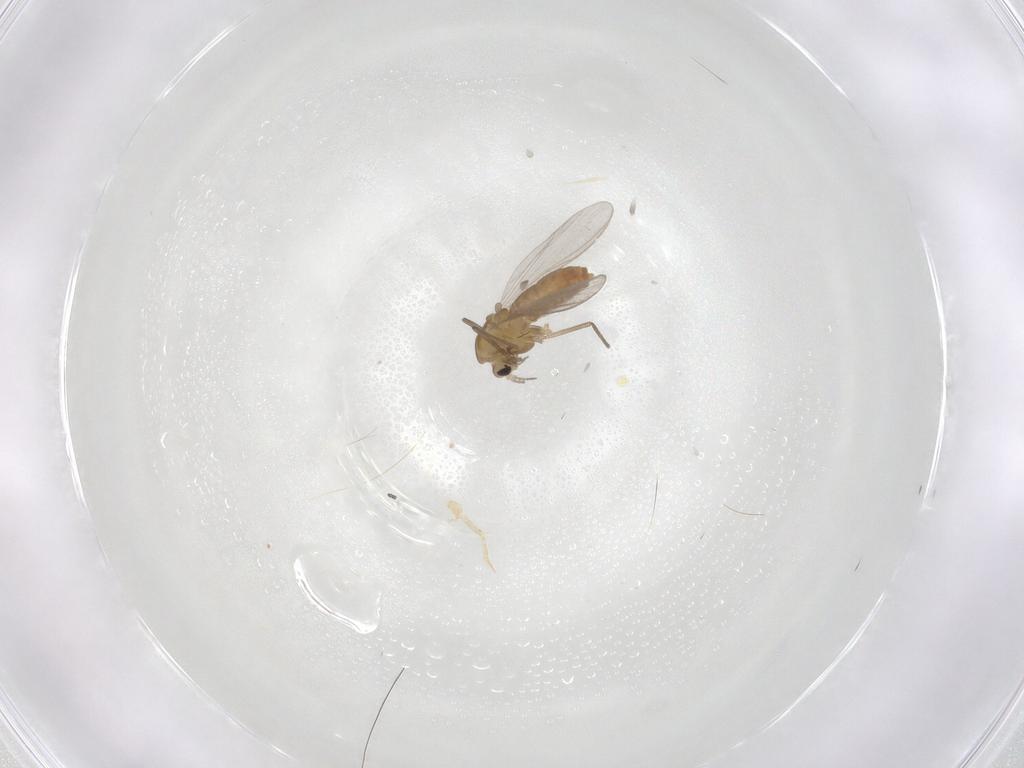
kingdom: Animalia
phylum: Arthropoda
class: Insecta
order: Diptera
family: Chironomidae
